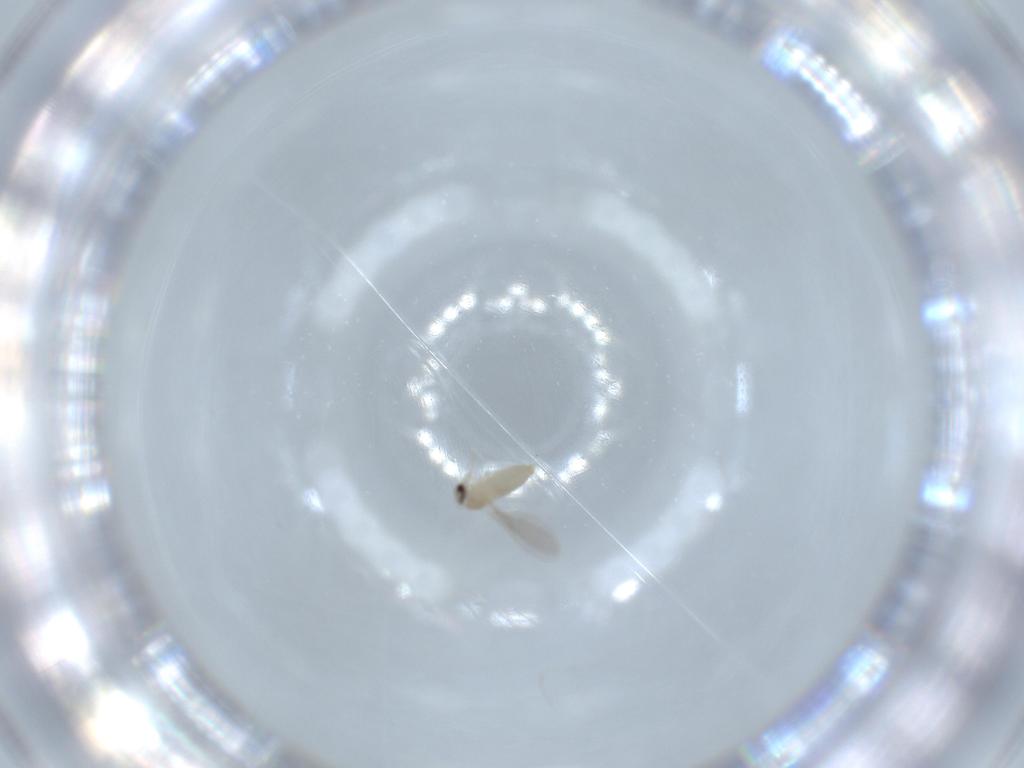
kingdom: Animalia
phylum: Arthropoda
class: Insecta
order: Diptera
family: Cecidomyiidae
